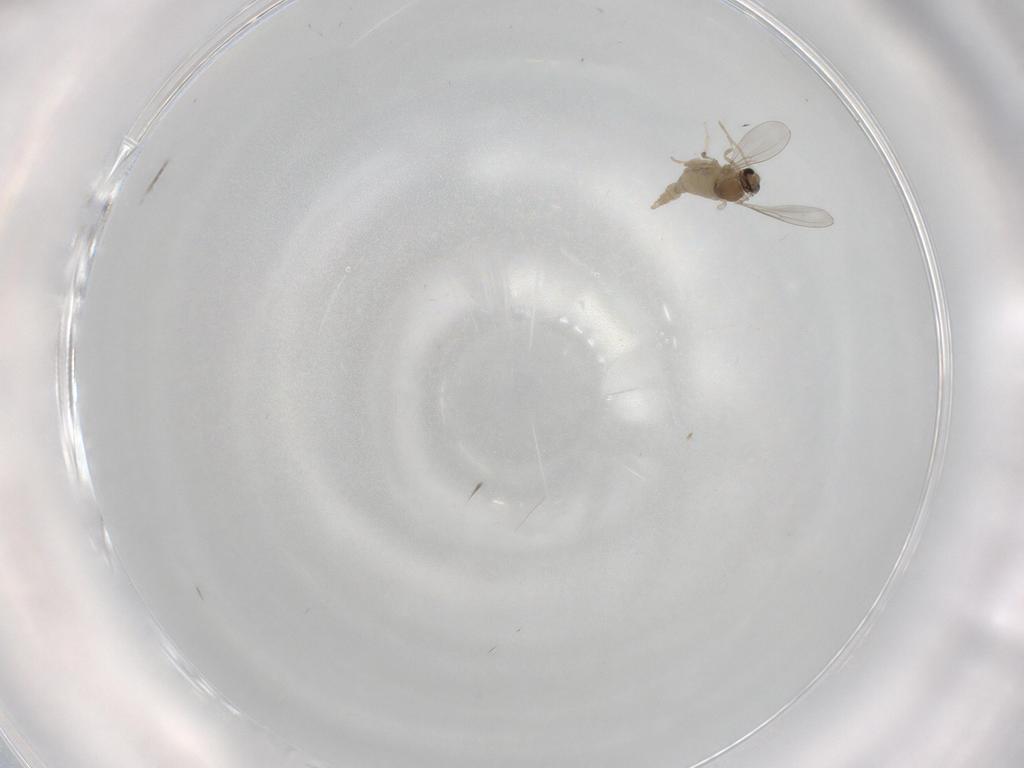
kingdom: Animalia
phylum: Arthropoda
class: Insecta
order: Diptera
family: Cecidomyiidae
